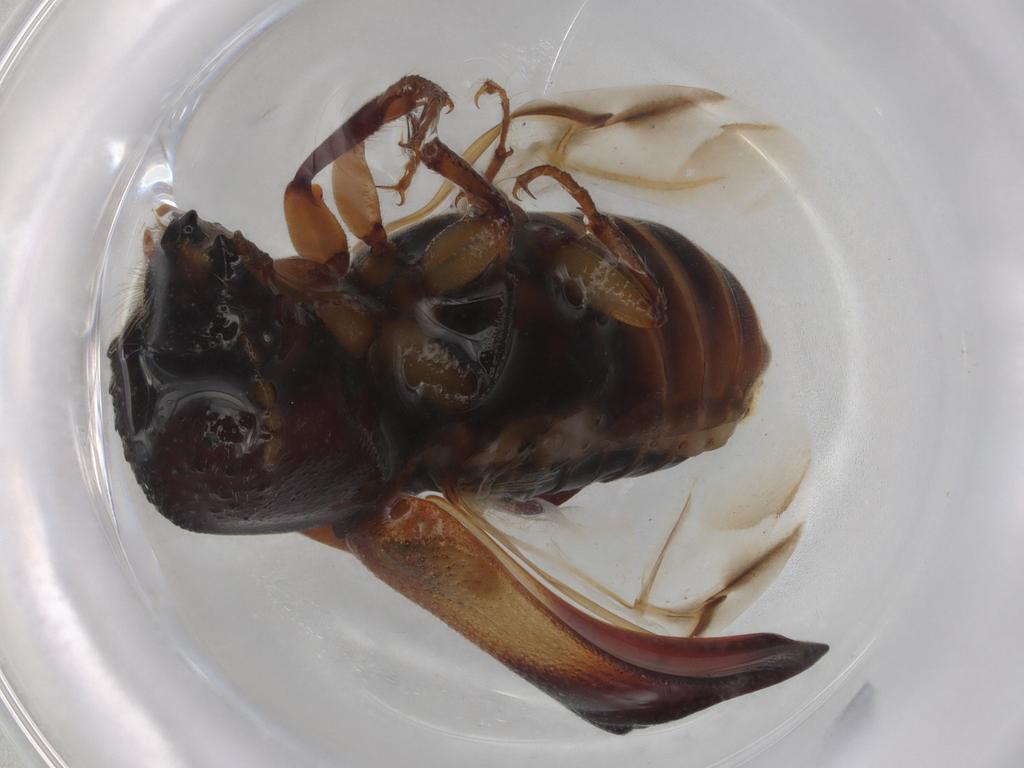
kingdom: Animalia
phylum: Arthropoda
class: Insecta
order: Coleoptera
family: Bostrichidae
